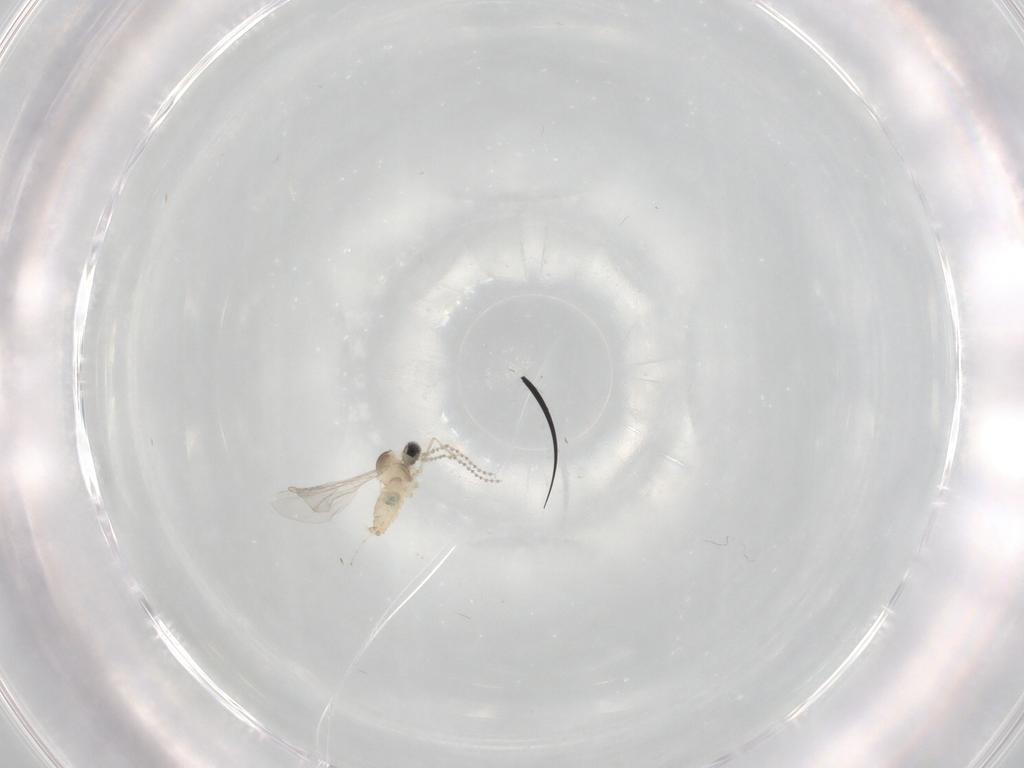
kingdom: Animalia
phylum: Arthropoda
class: Insecta
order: Diptera
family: Cecidomyiidae
